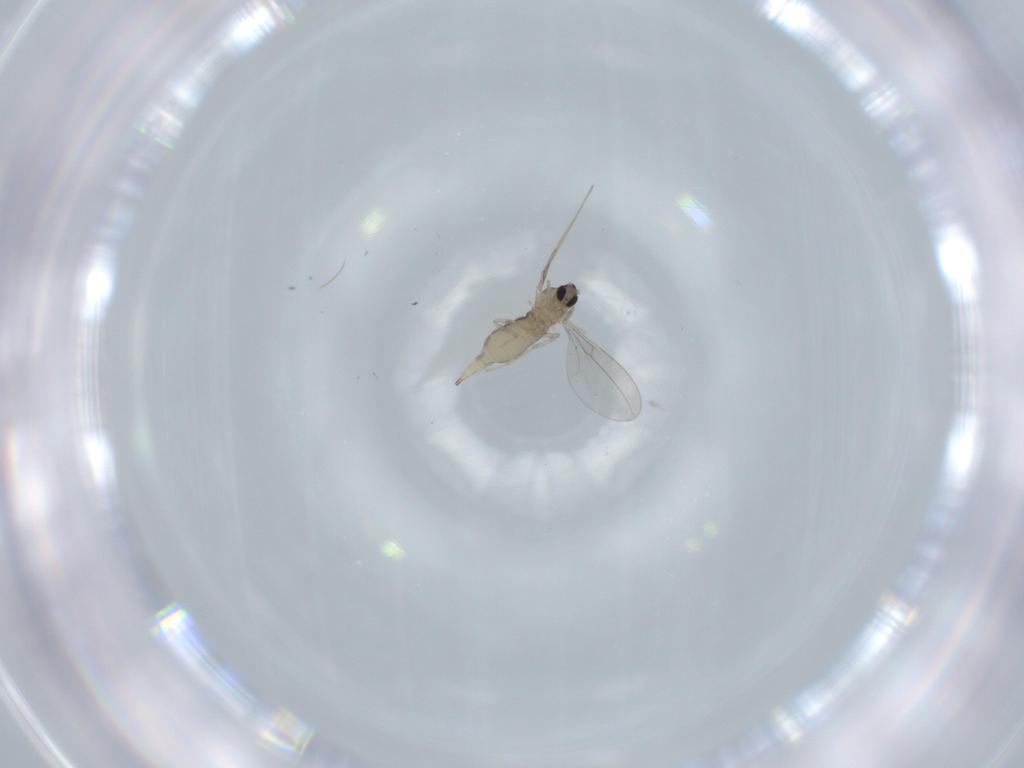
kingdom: Animalia
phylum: Arthropoda
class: Insecta
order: Diptera
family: Cecidomyiidae
